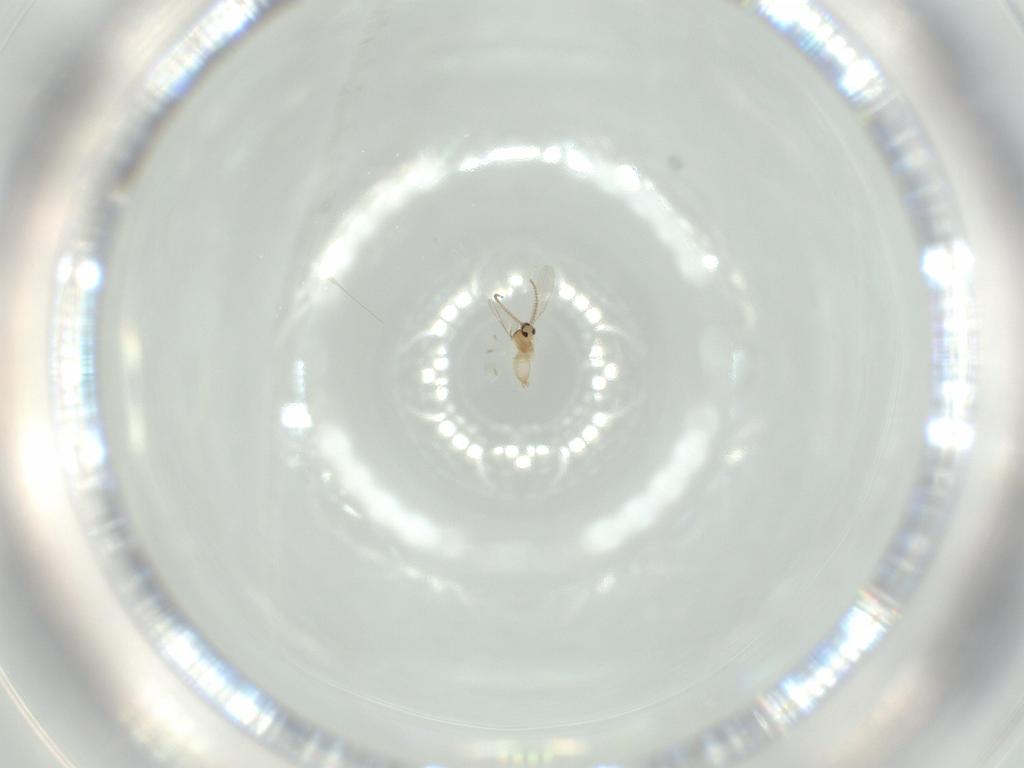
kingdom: Animalia
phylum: Arthropoda
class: Insecta
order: Diptera
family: Cecidomyiidae
